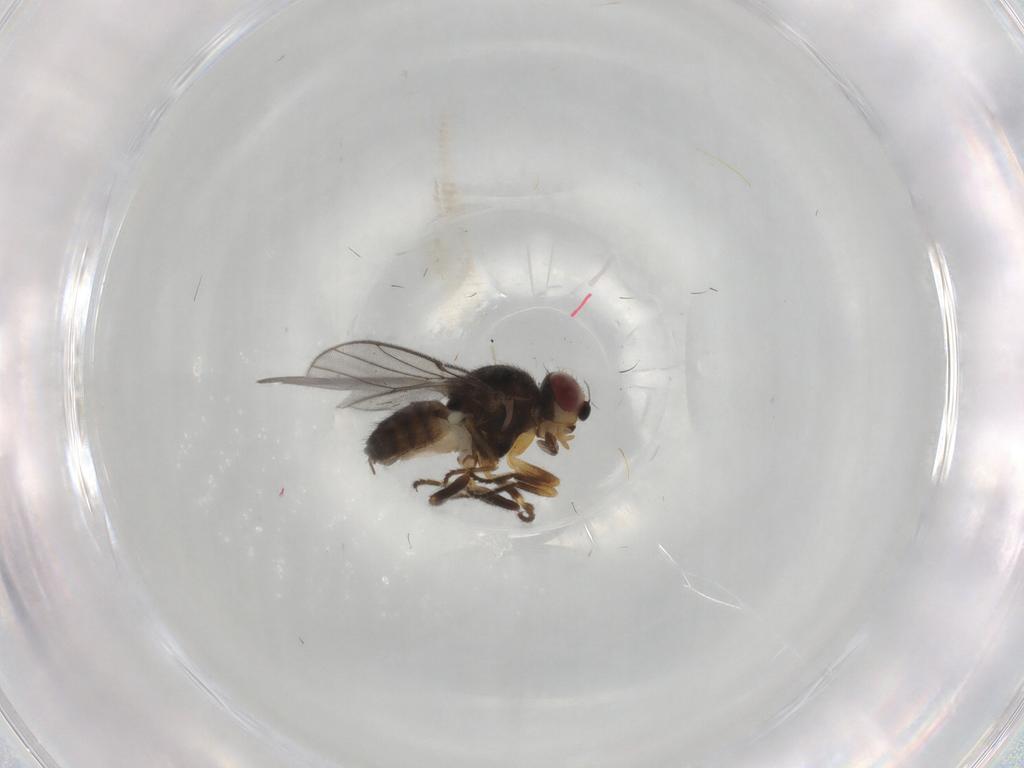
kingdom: Animalia
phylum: Arthropoda
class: Insecta
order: Diptera
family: Chloropidae
